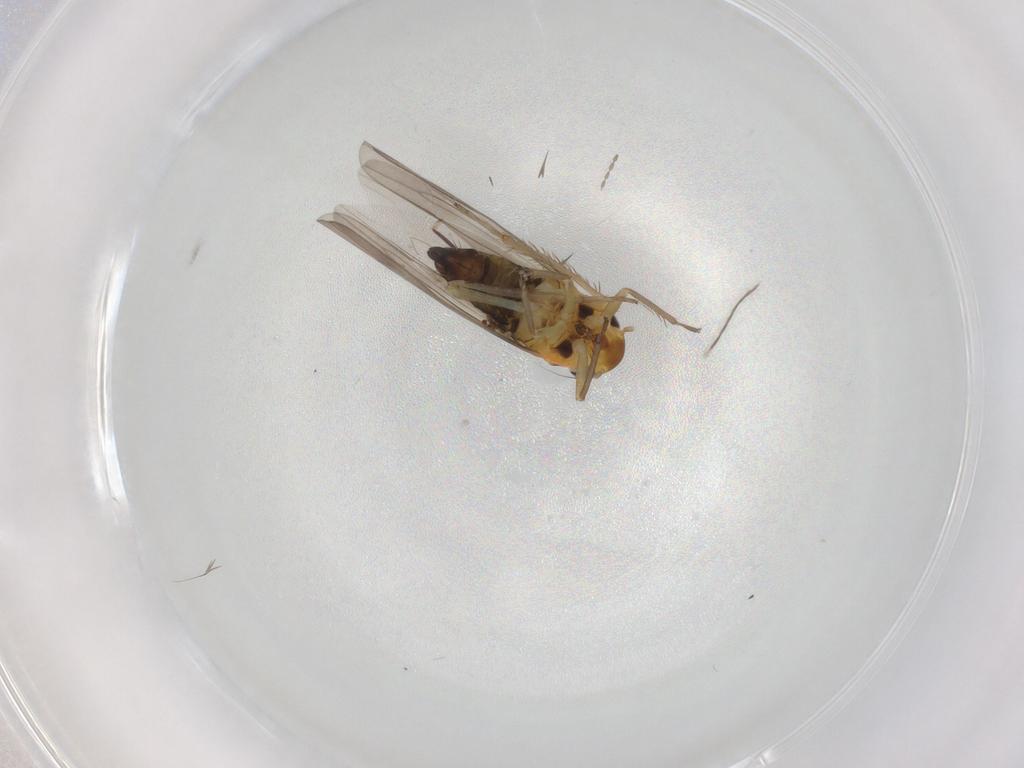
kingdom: Animalia
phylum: Arthropoda
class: Insecta
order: Hemiptera
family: Cicadellidae
